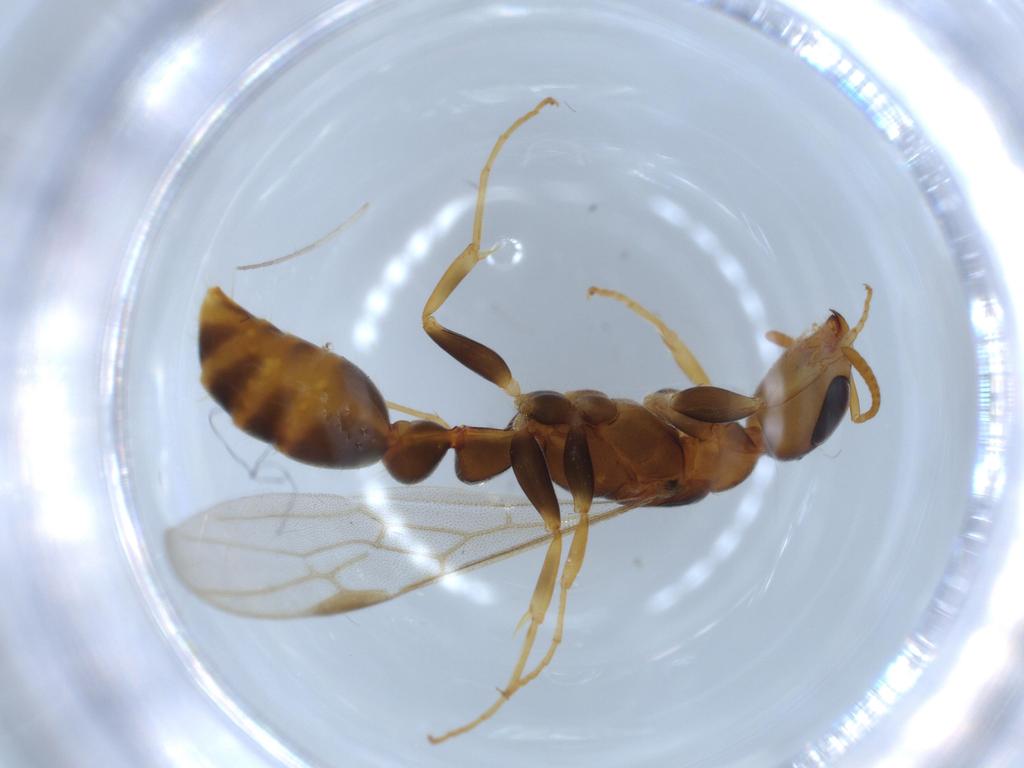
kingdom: Animalia
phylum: Arthropoda
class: Insecta
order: Hymenoptera
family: Formicidae
